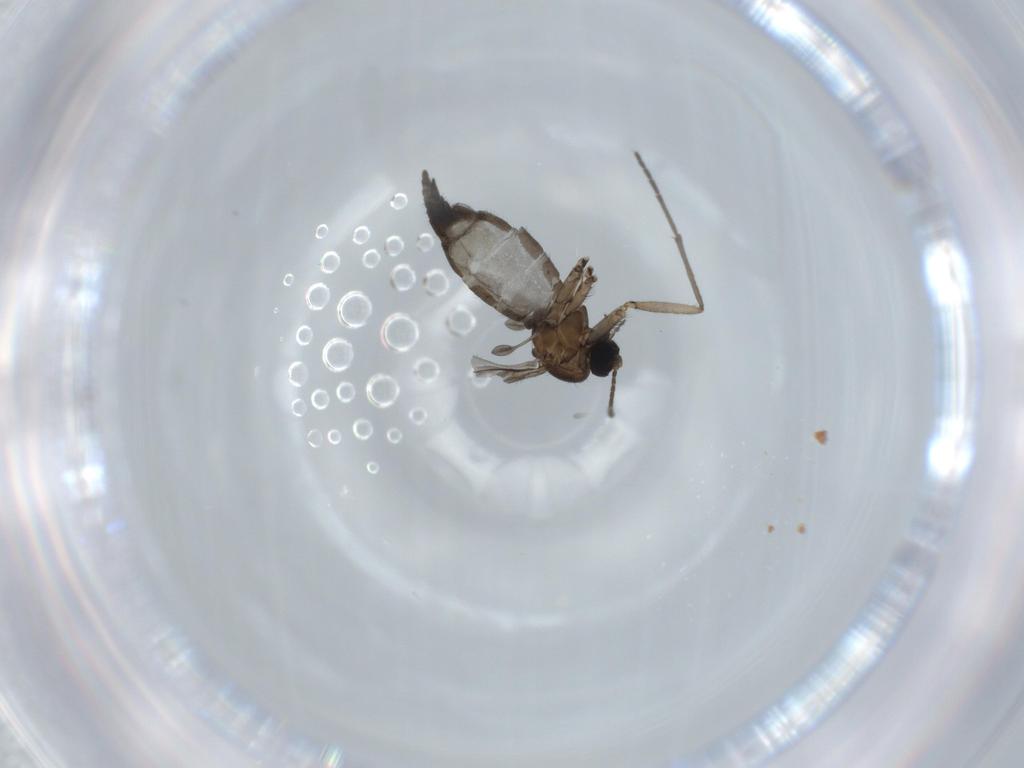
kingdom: Animalia
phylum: Arthropoda
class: Insecta
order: Diptera
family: Sciaridae
